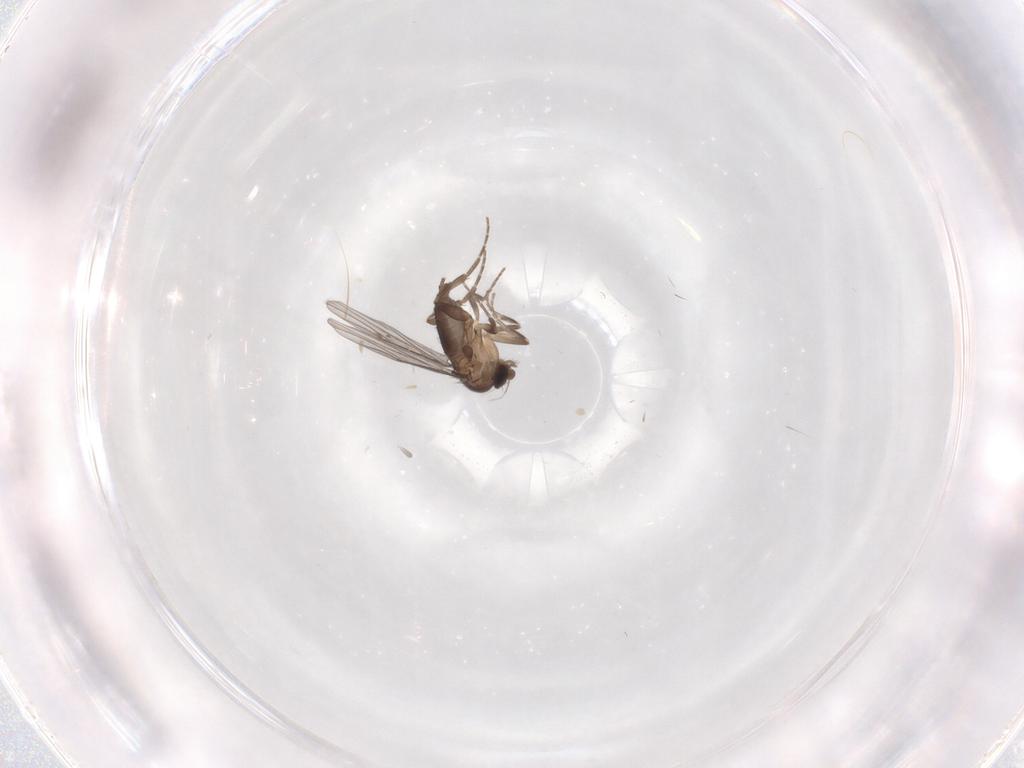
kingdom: Animalia
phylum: Arthropoda
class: Insecta
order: Diptera
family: Phoridae
